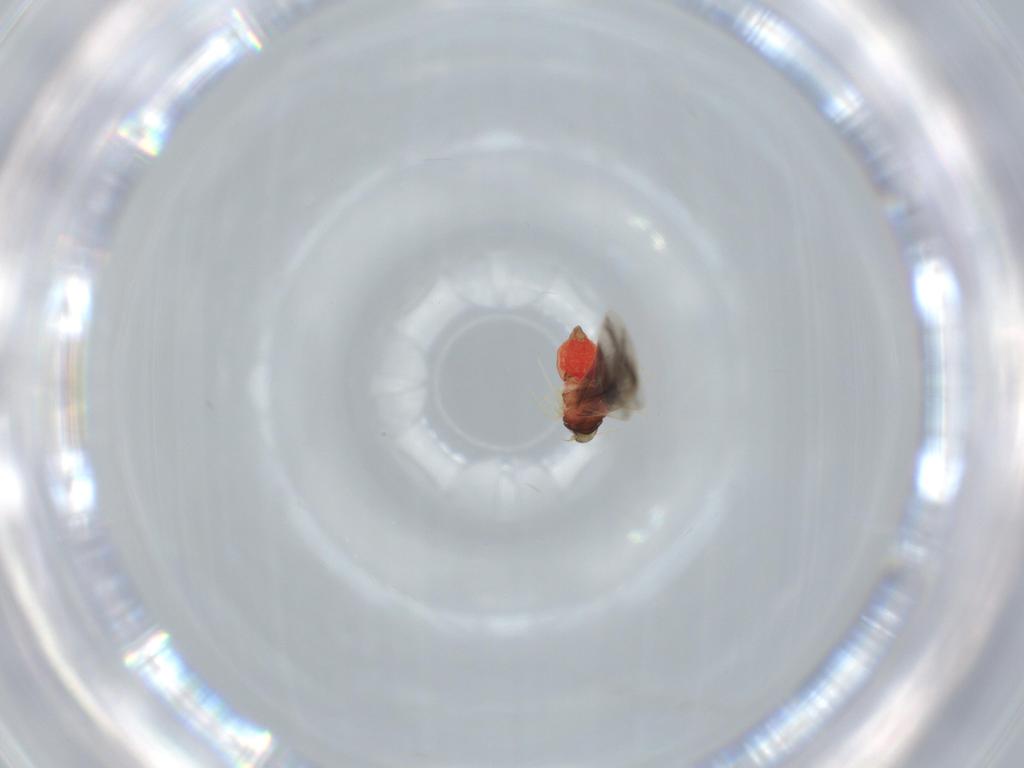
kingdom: Animalia
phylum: Arthropoda
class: Insecta
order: Hemiptera
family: Aleyrodidae
